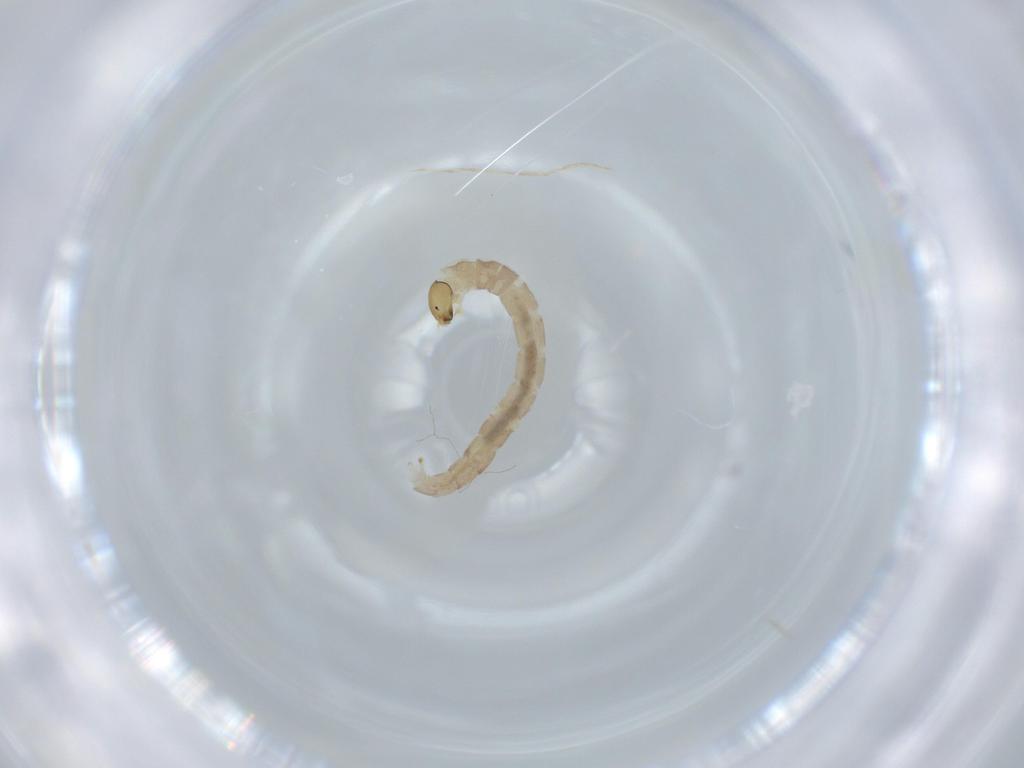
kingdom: Animalia
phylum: Arthropoda
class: Insecta
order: Diptera
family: Chironomidae
